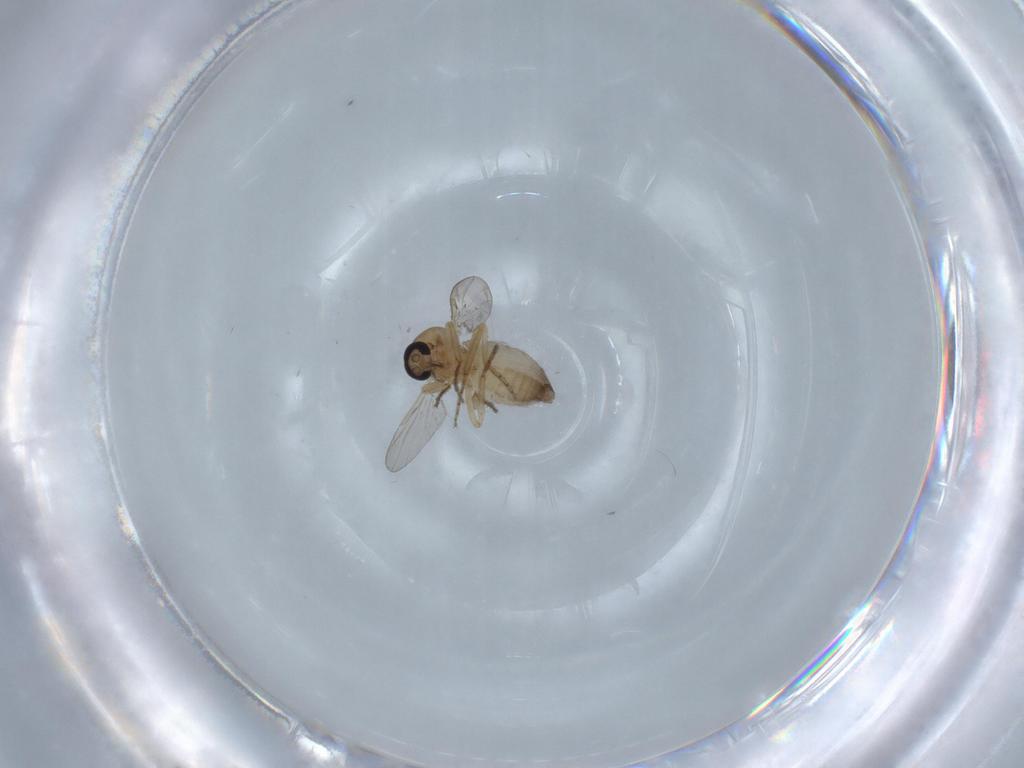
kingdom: Animalia
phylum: Arthropoda
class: Insecta
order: Diptera
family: Ceratopogonidae
